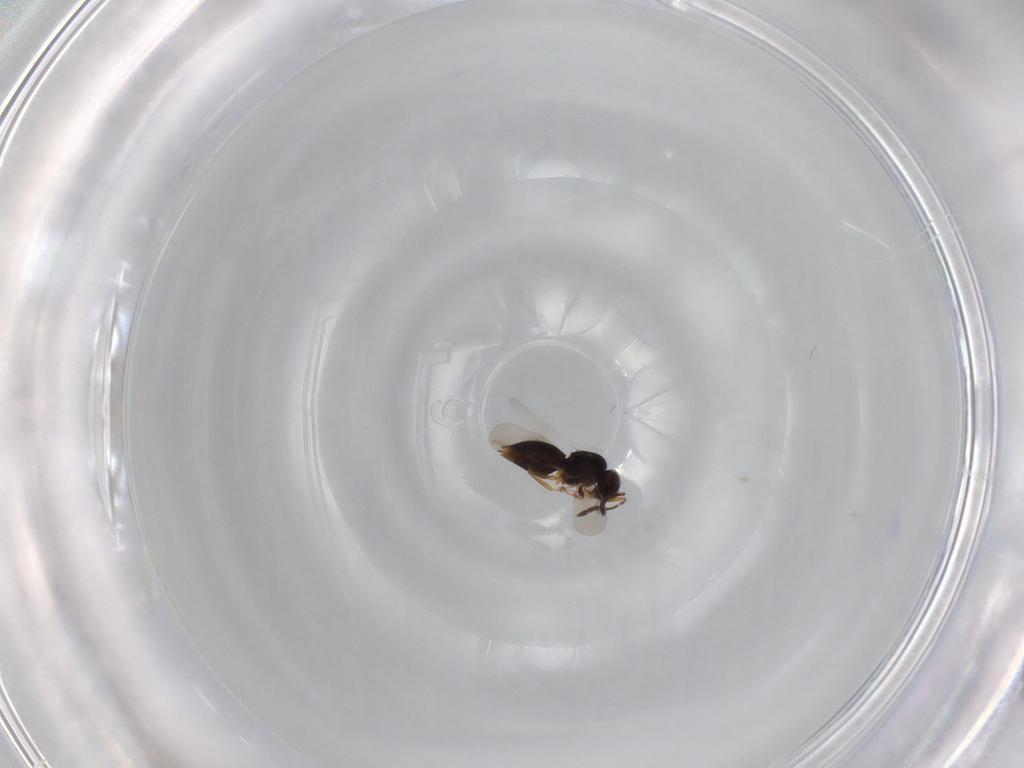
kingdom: Animalia
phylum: Arthropoda
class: Insecta
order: Hymenoptera
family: Ceraphronidae
